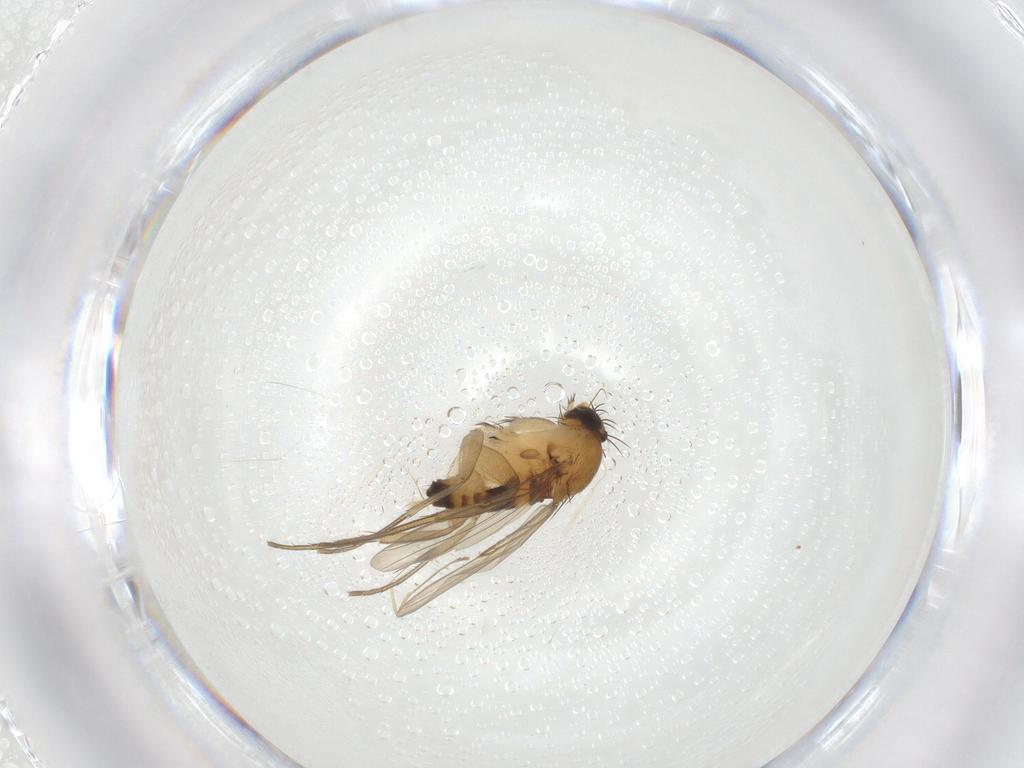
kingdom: Animalia
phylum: Arthropoda
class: Insecta
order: Diptera
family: Phoridae
